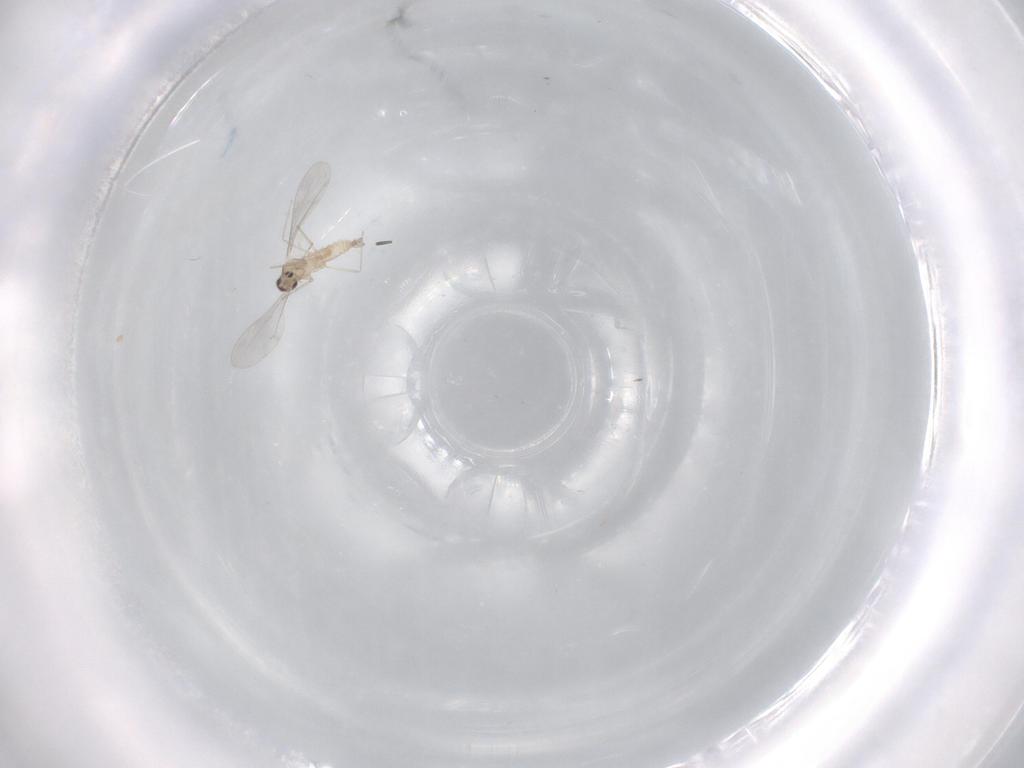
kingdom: Animalia
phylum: Arthropoda
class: Insecta
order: Diptera
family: Cecidomyiidae
